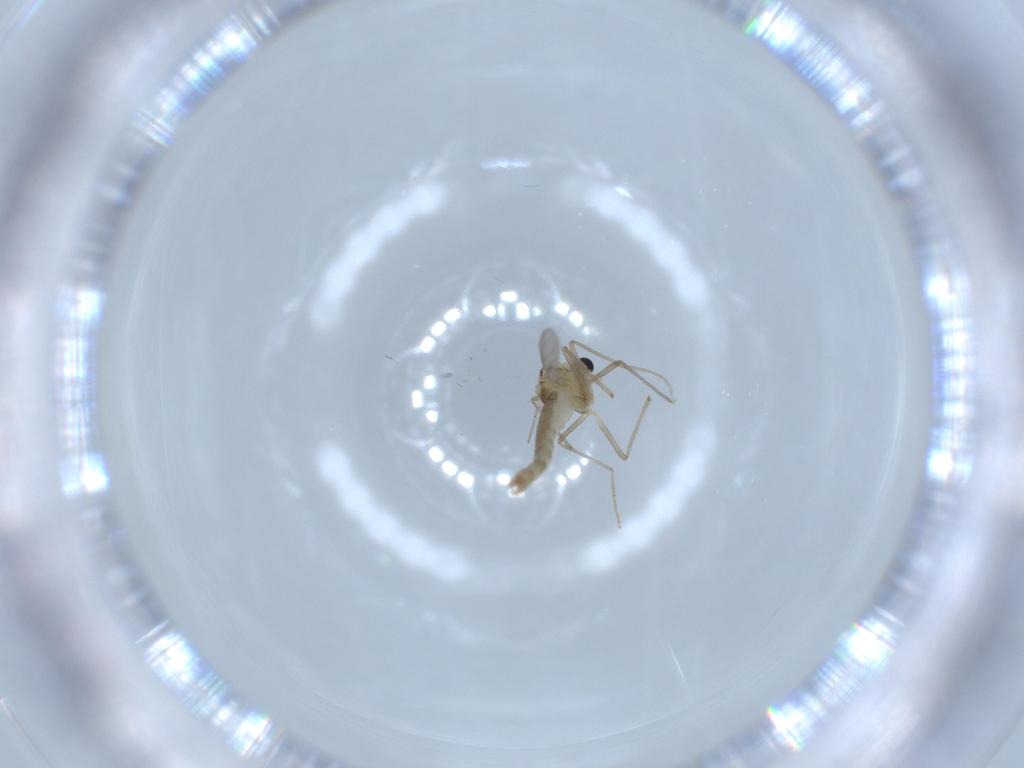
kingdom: Animalia
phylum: Arthropoda
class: Insecta
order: Diptera
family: Chironomidae
